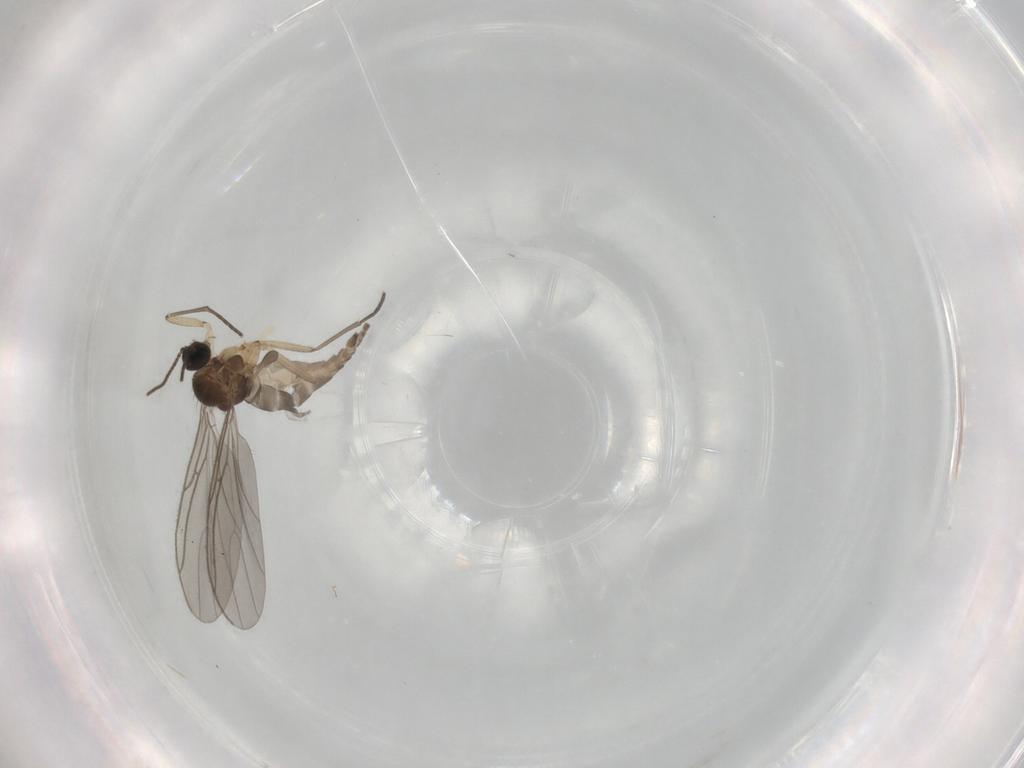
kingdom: Animalia
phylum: Arthropoda
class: Insecta
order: Diptera
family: Sciaridae
